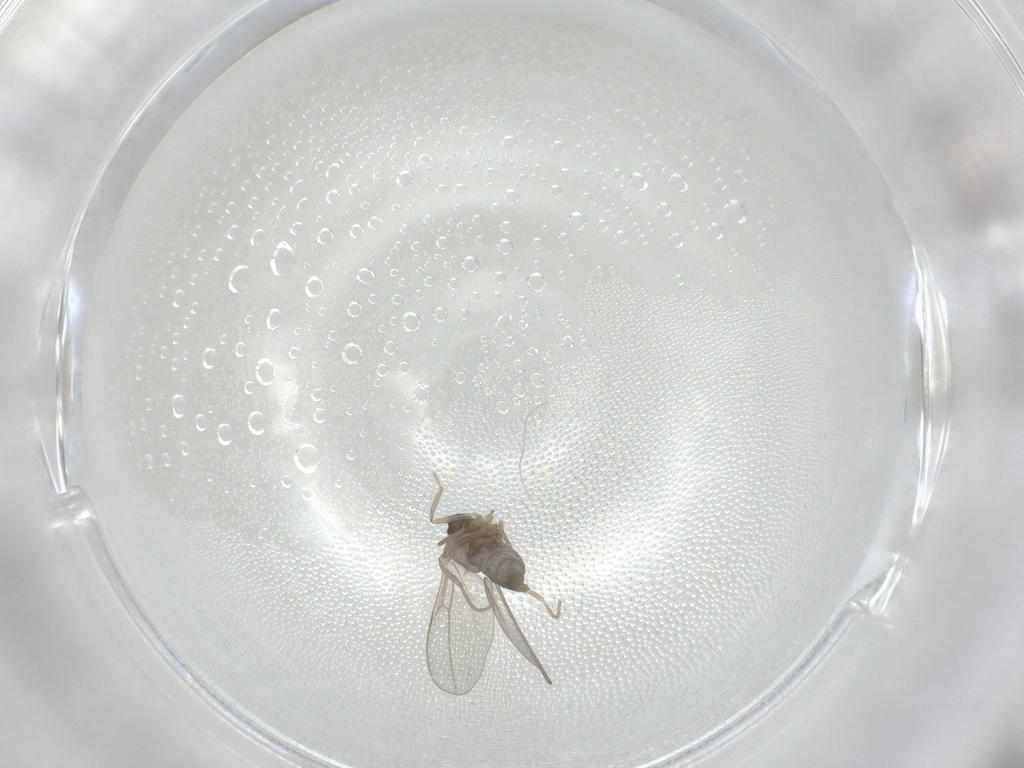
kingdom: Animalia
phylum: Arthropoda
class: Insecta
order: Diptera
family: Cecidomyiidae
